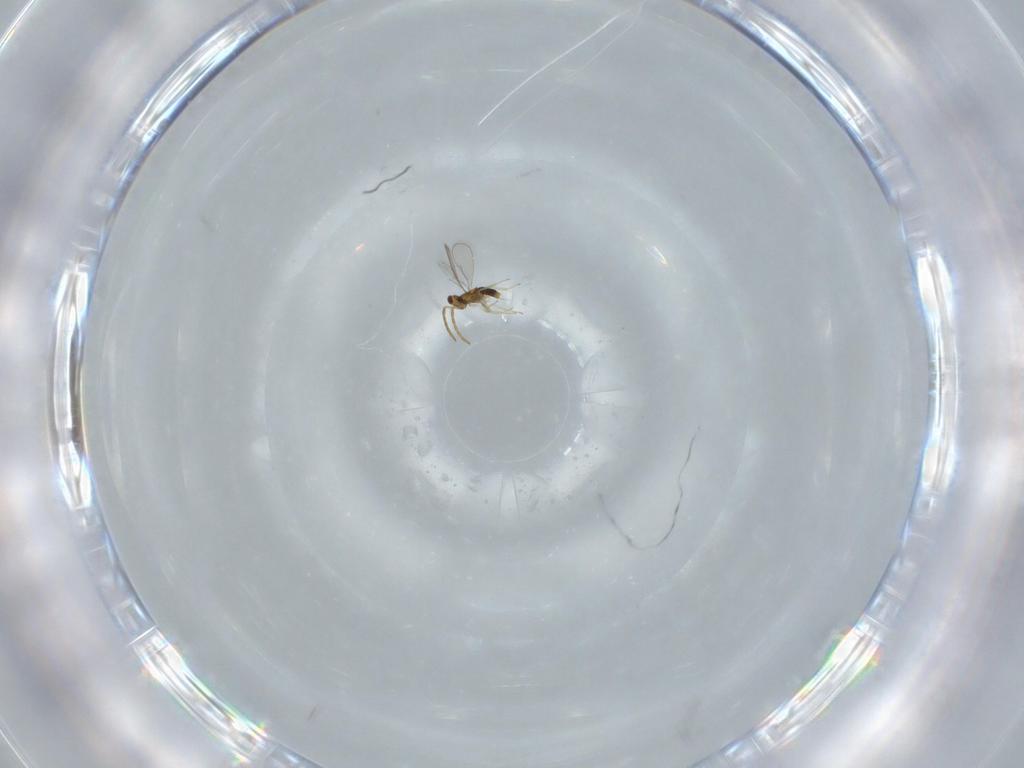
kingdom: Animalia
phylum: Arthropoda
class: Insecta
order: Hymenoptera
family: Aphelinidae
